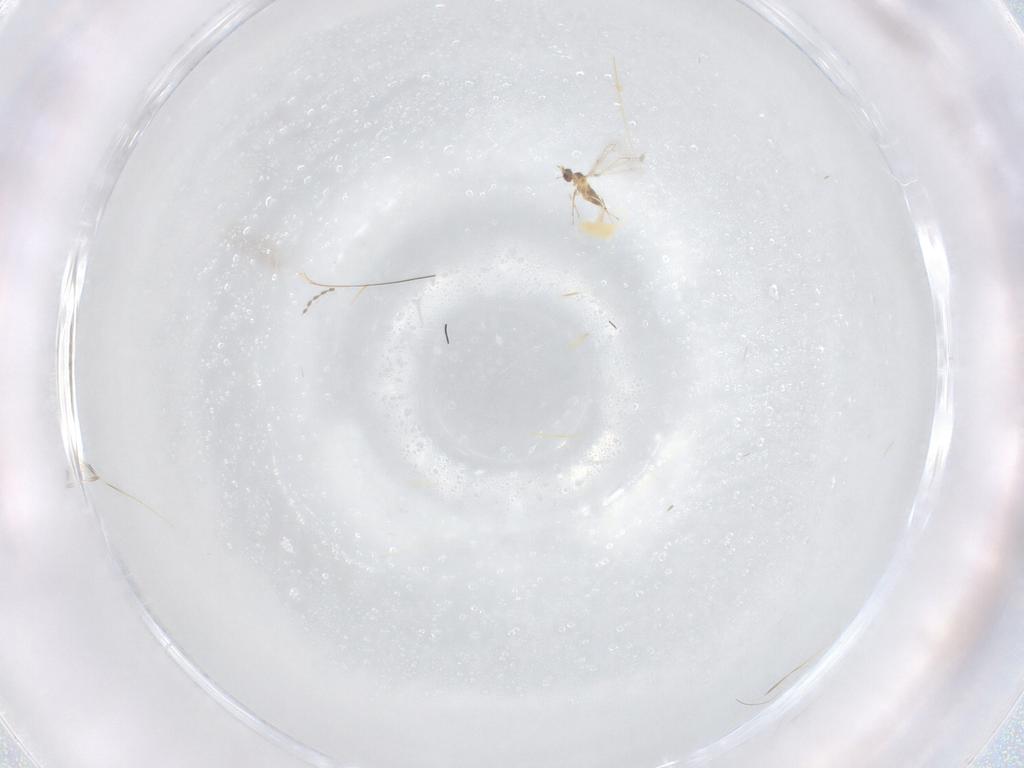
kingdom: Animalia
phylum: Arthropoda
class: Insecta
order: Hymenoptera
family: Mymaridae
